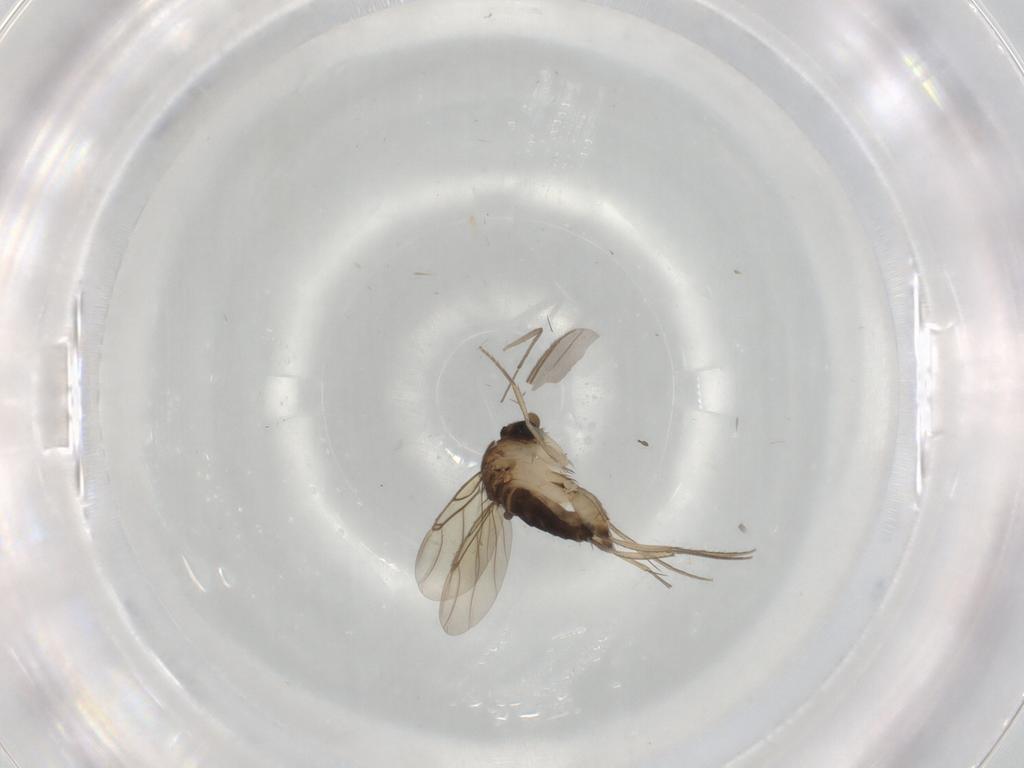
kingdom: Animalia
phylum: Arthropoda
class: Insecta
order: Diptera
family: Phoridae
